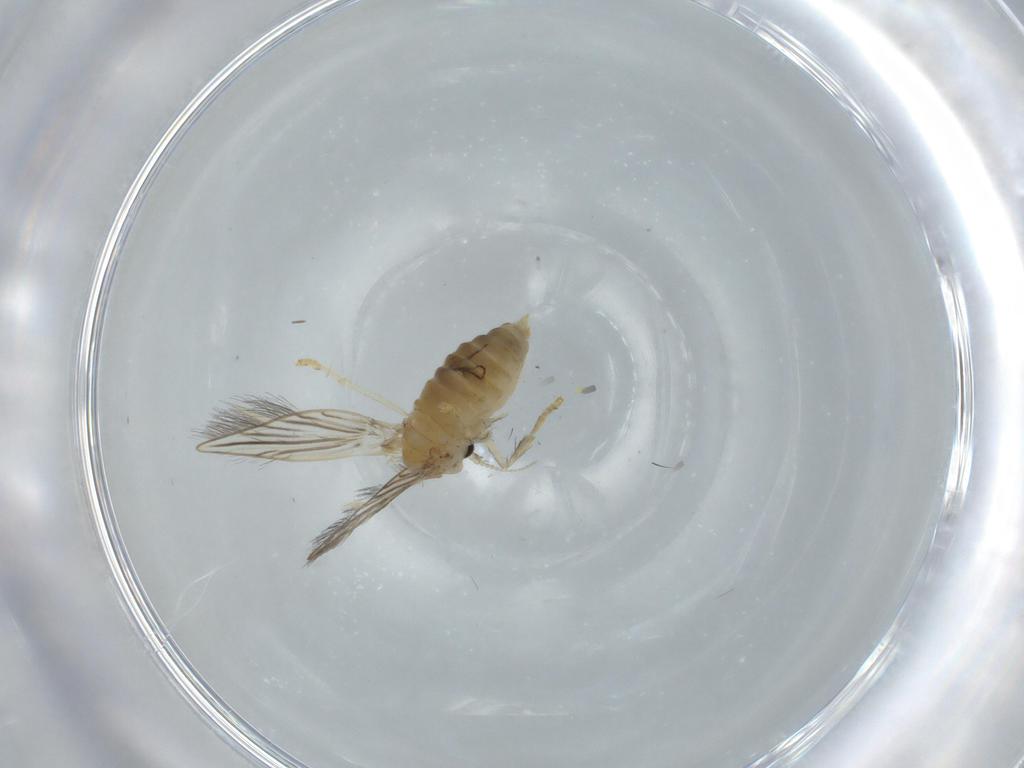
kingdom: Animalia
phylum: Arthropoda
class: Insecta
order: Diptera
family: Psychodidae
